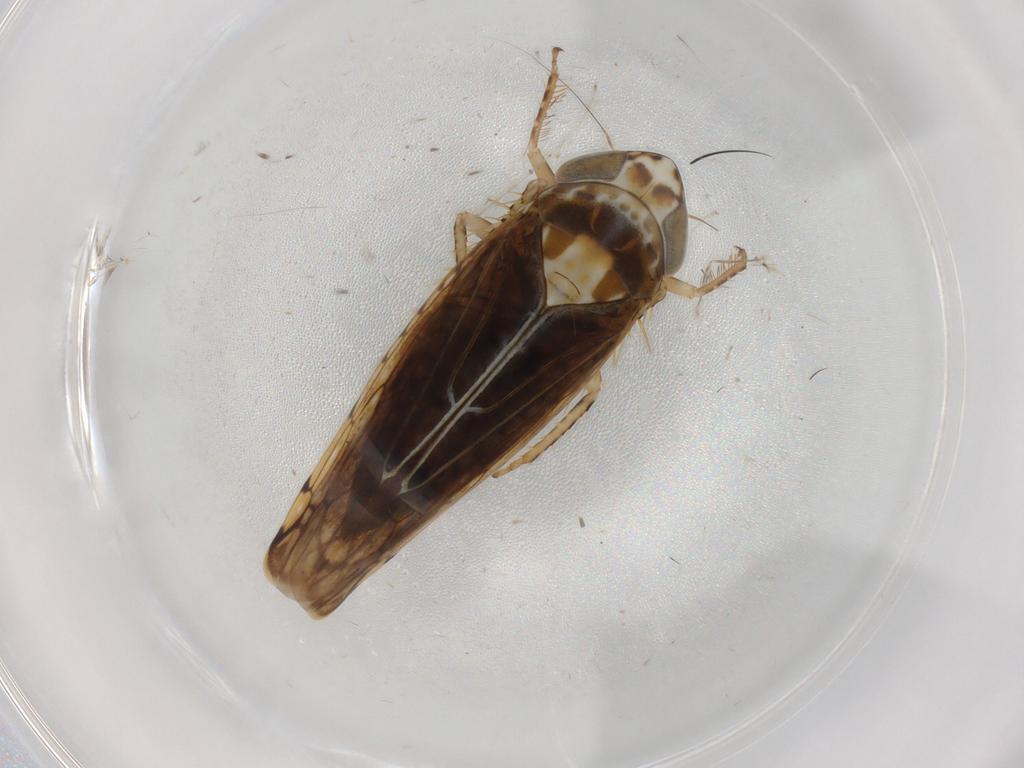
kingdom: Animalia
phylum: Arthropoda
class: Insecta
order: Hemiptera
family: Cicadellidae
